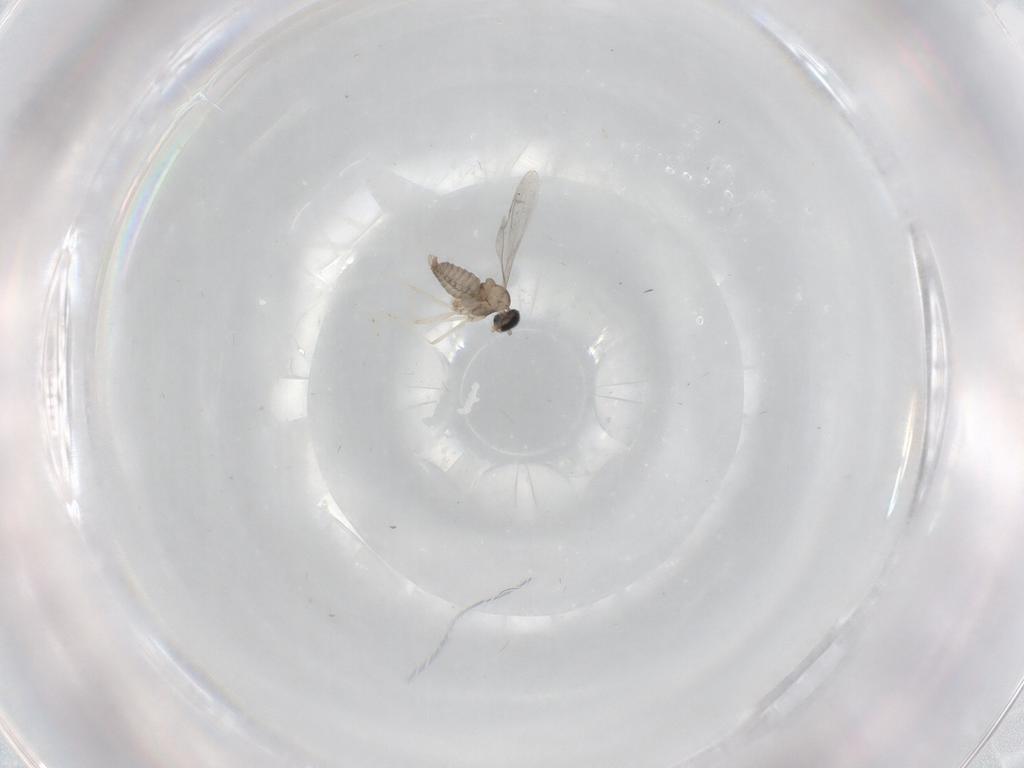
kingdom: Animalia
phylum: Arthropoda
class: Insecta
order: Diptera
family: Sciaridae
